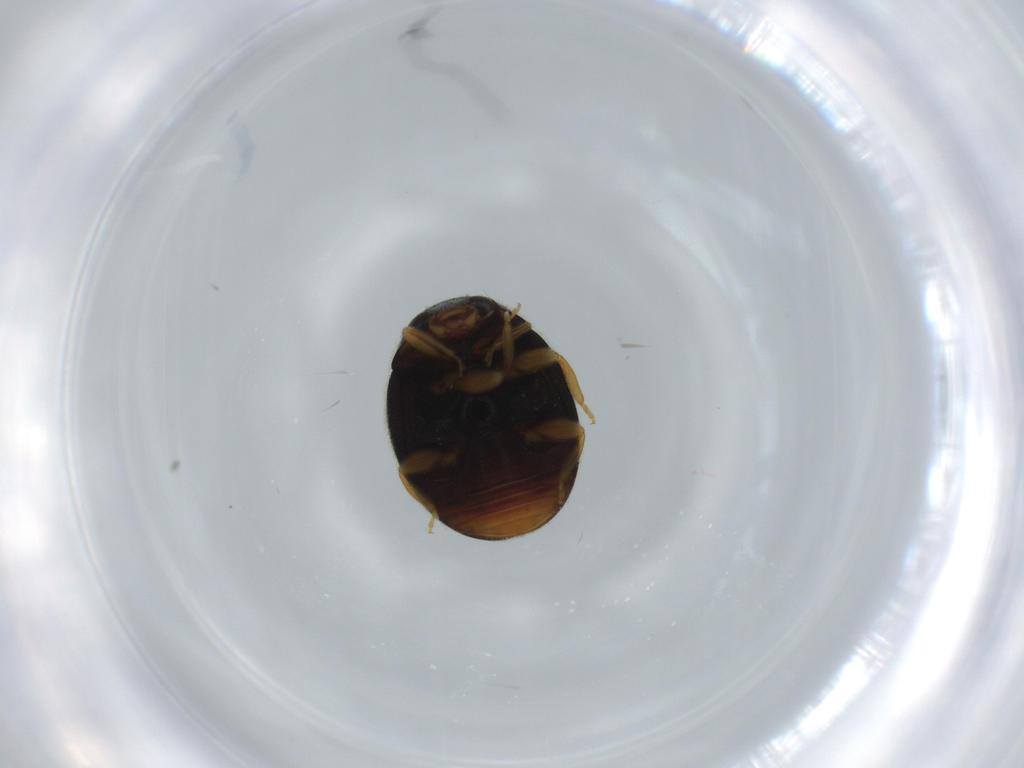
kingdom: Animalia
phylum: Arthropoda
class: Insecta
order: Coleoptera
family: Coccinellidae
